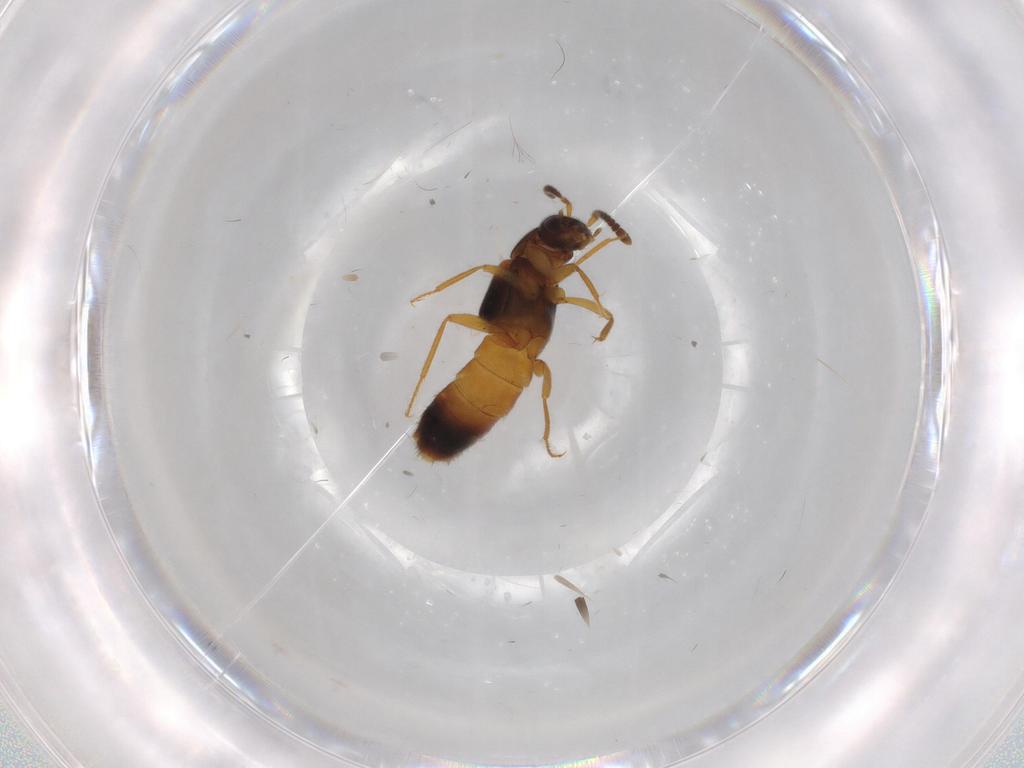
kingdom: Animalia
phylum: Arthropoda
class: Insecta
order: Coleoptera
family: Staphylinidae
